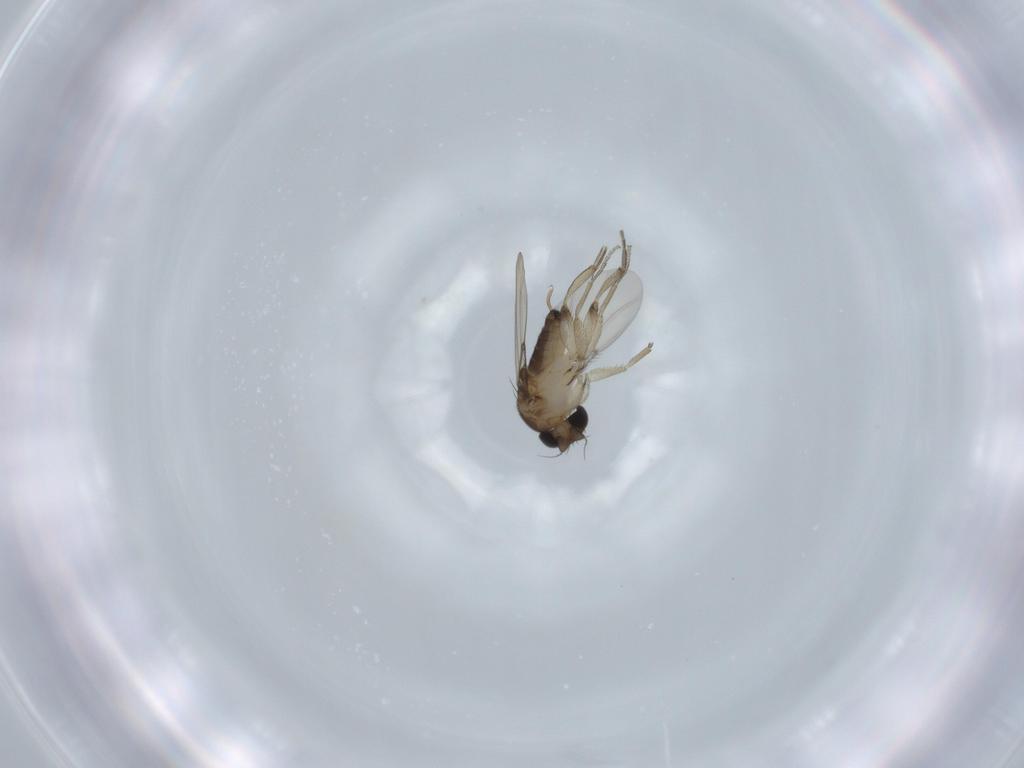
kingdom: Animalia
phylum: Arthropoda
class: Insecta
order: Diptera
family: Phoridae
